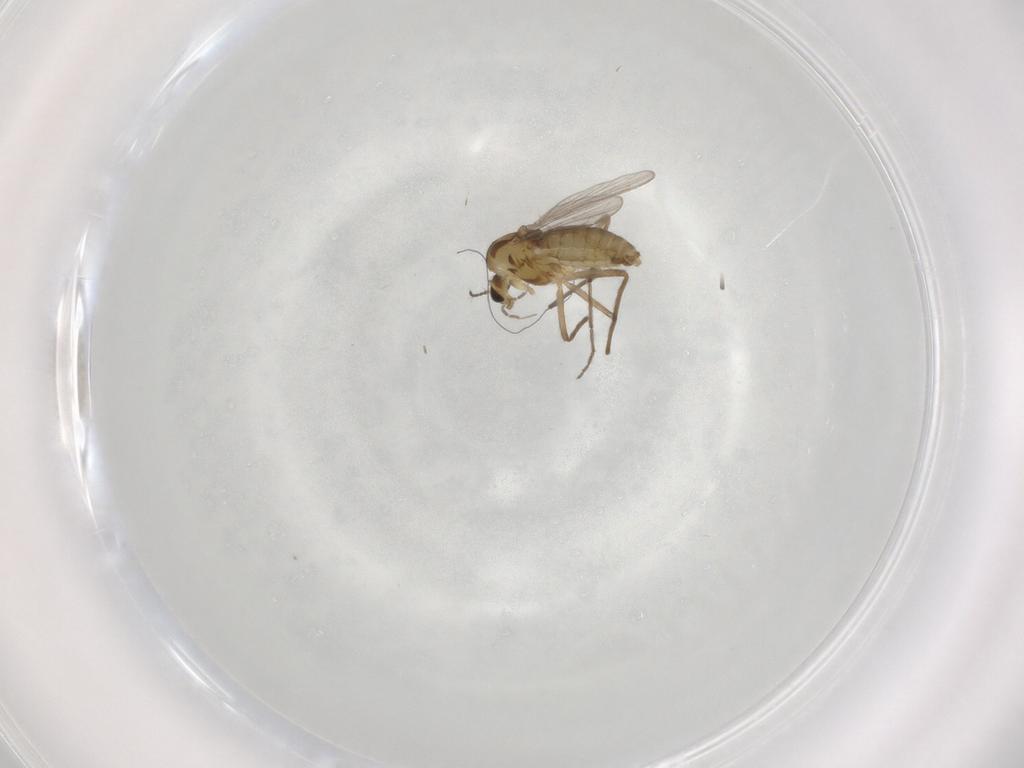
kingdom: Animalia
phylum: Arthropoda
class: Insecta
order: Diptera
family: Chironomidae
